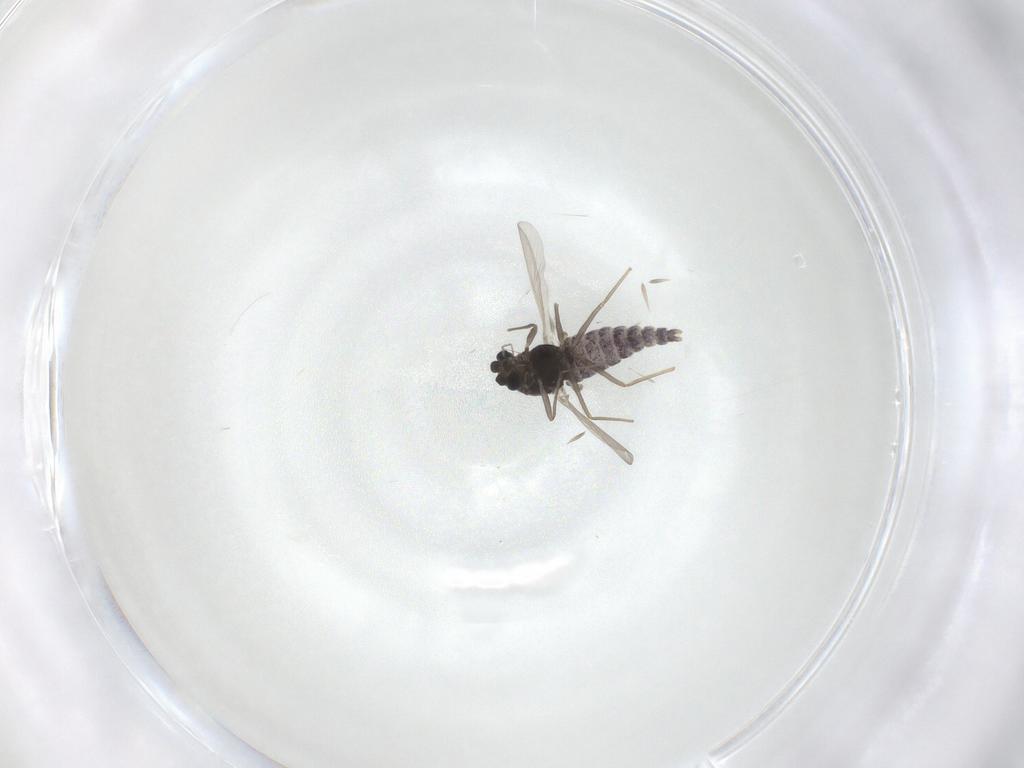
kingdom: Animalia
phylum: Arthropoda
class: Insecta
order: Diptera
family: Chironomidae
